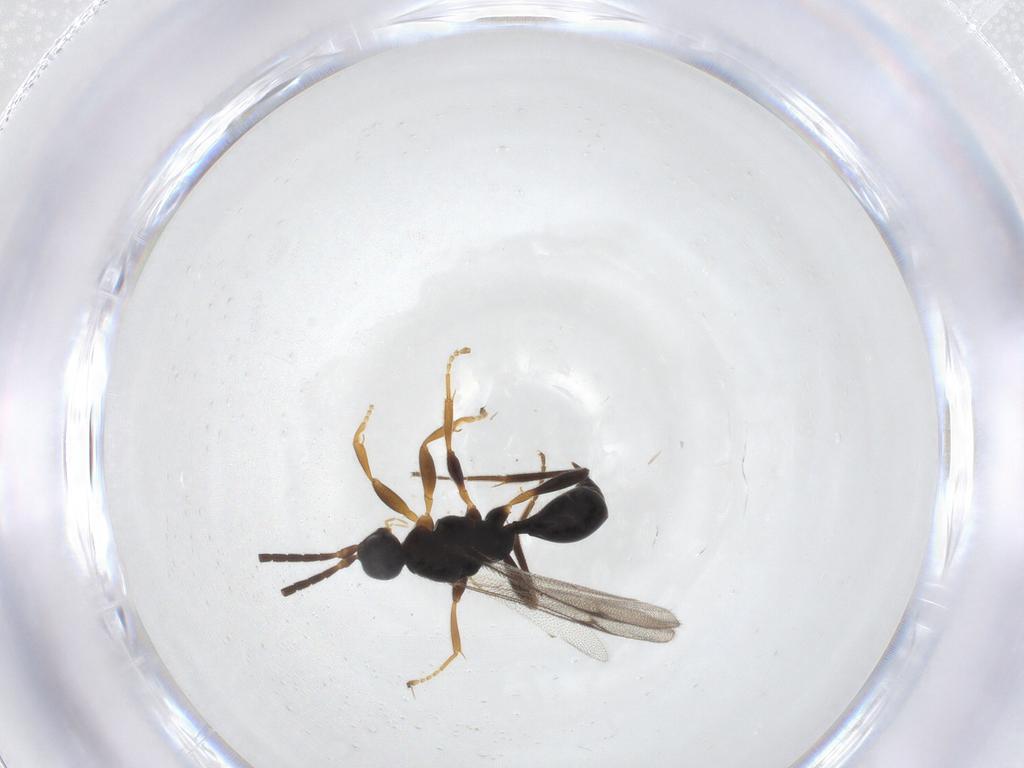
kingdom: Animalia
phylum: Arthropoda
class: Insecta
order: Hymenoptera
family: Proctotrupidae
